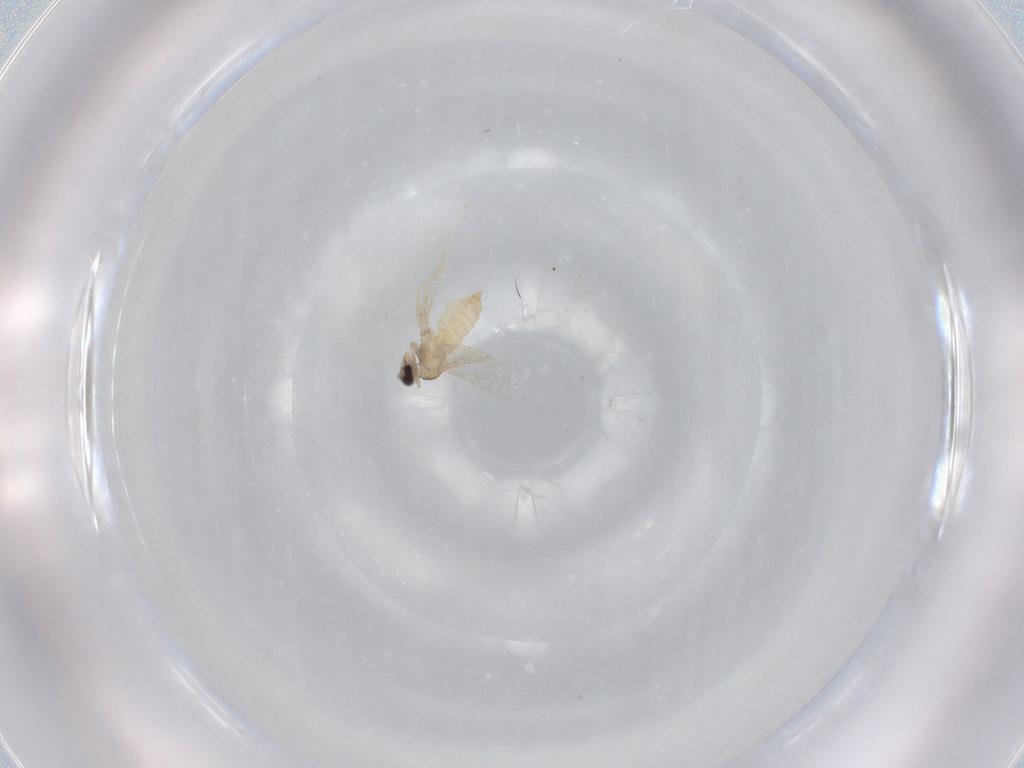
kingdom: Animalia
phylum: Arthropoda
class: Insecta
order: Diptera
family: Cecidomyiidae
